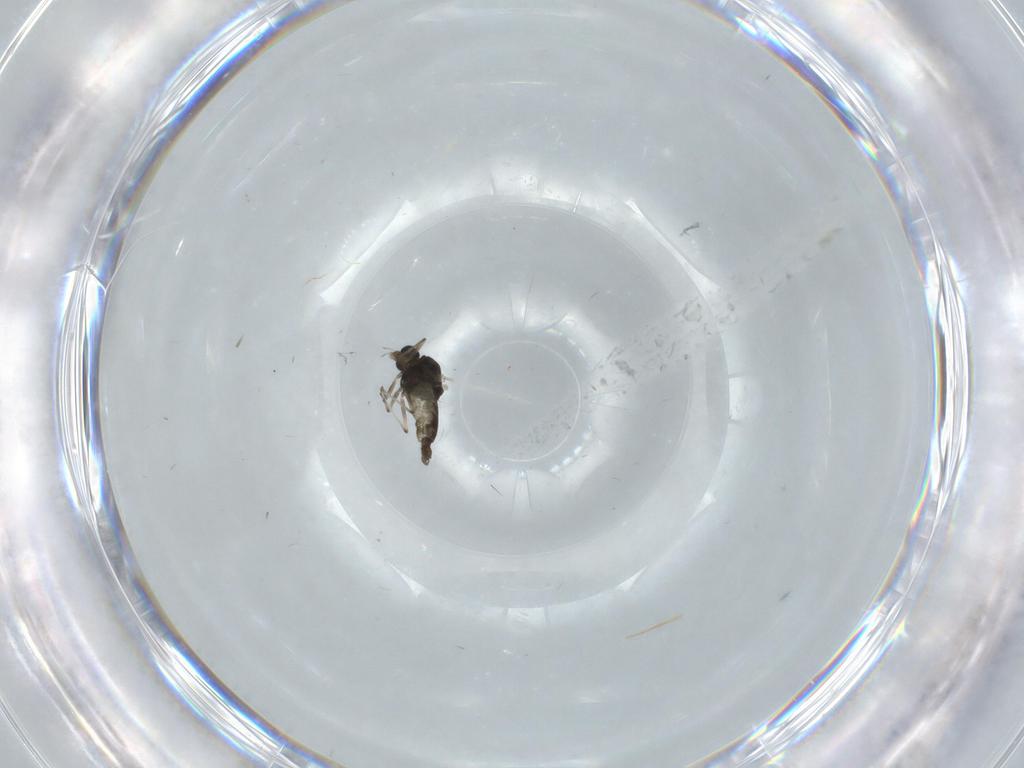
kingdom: Animalia
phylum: Arthropoda
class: Insecta
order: Diptera
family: Chironomidae
